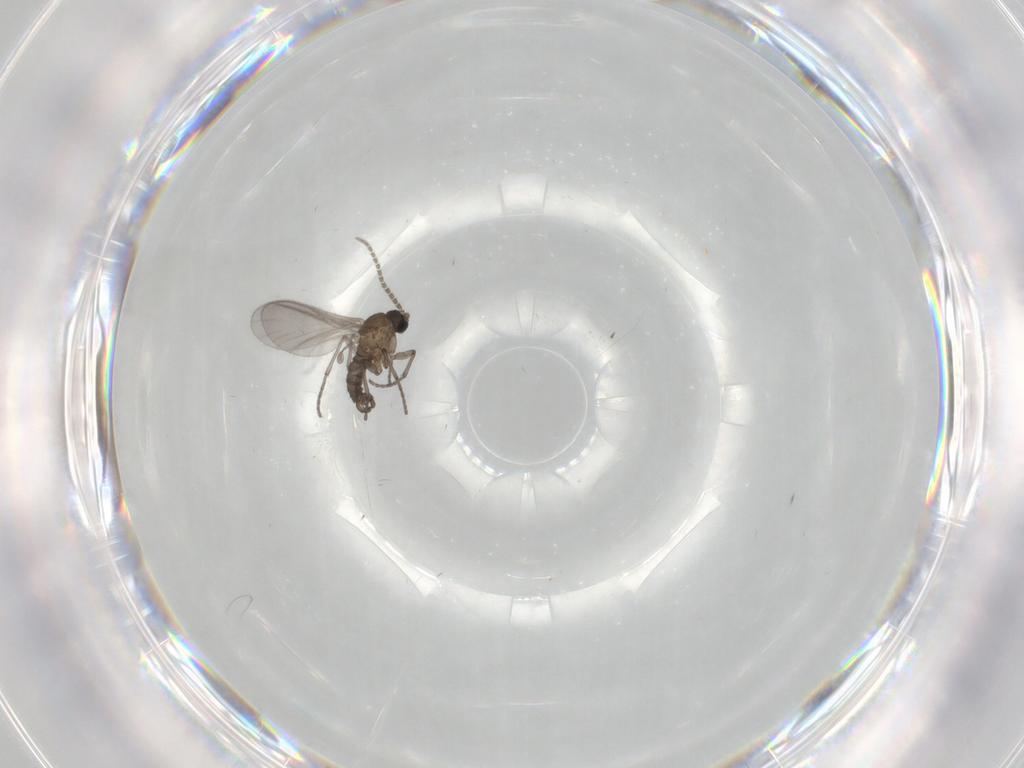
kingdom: Animalia
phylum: Arthropoda
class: Insecta
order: Diptera
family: Sciaridae
